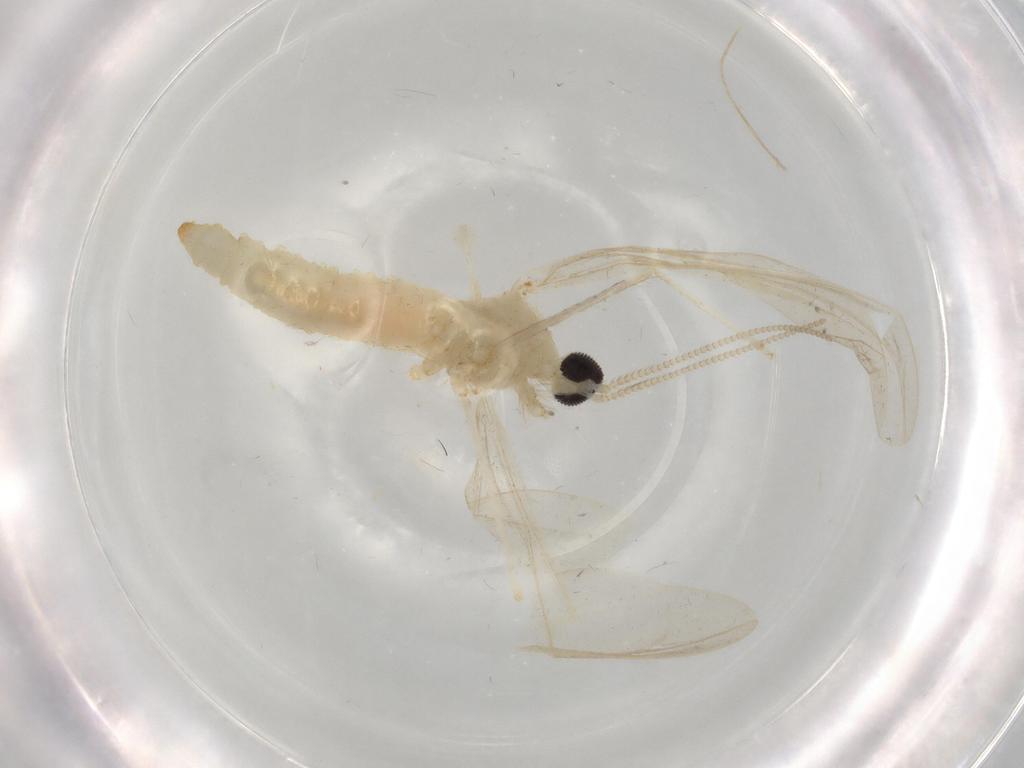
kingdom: Animalia
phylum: Arthropoda
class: Insecta
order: Diptera
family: Cecidomyiidae
